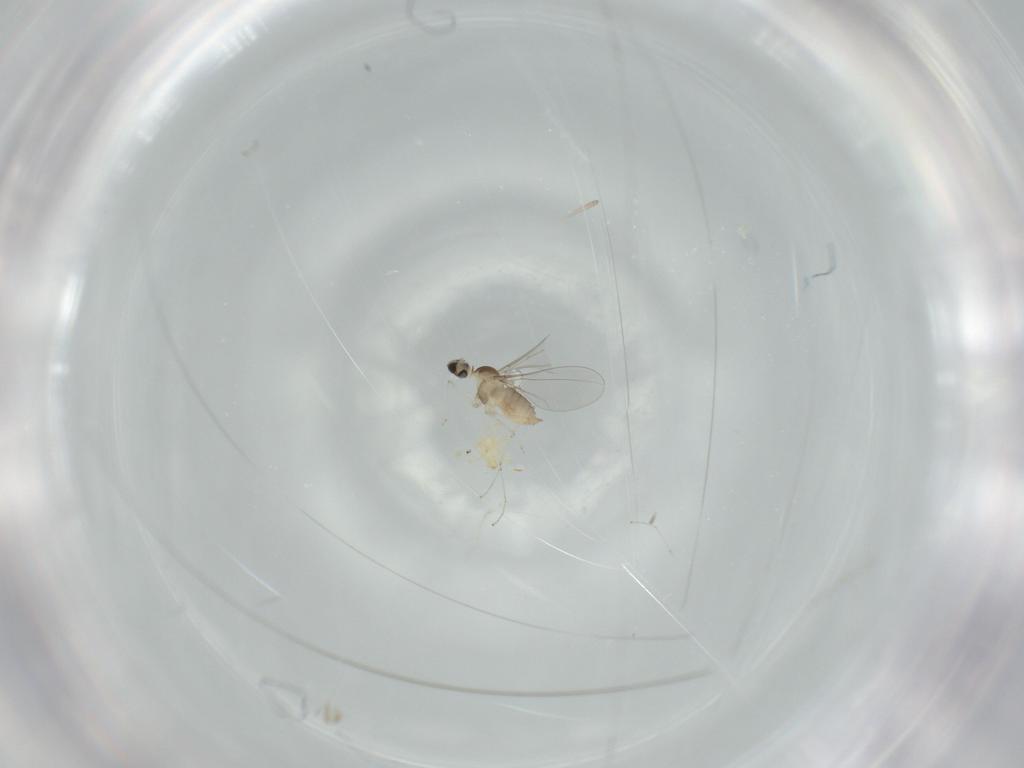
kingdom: Animalia
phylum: Arthropoda
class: Insecta
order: Diptera
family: Cecidomyiidae
